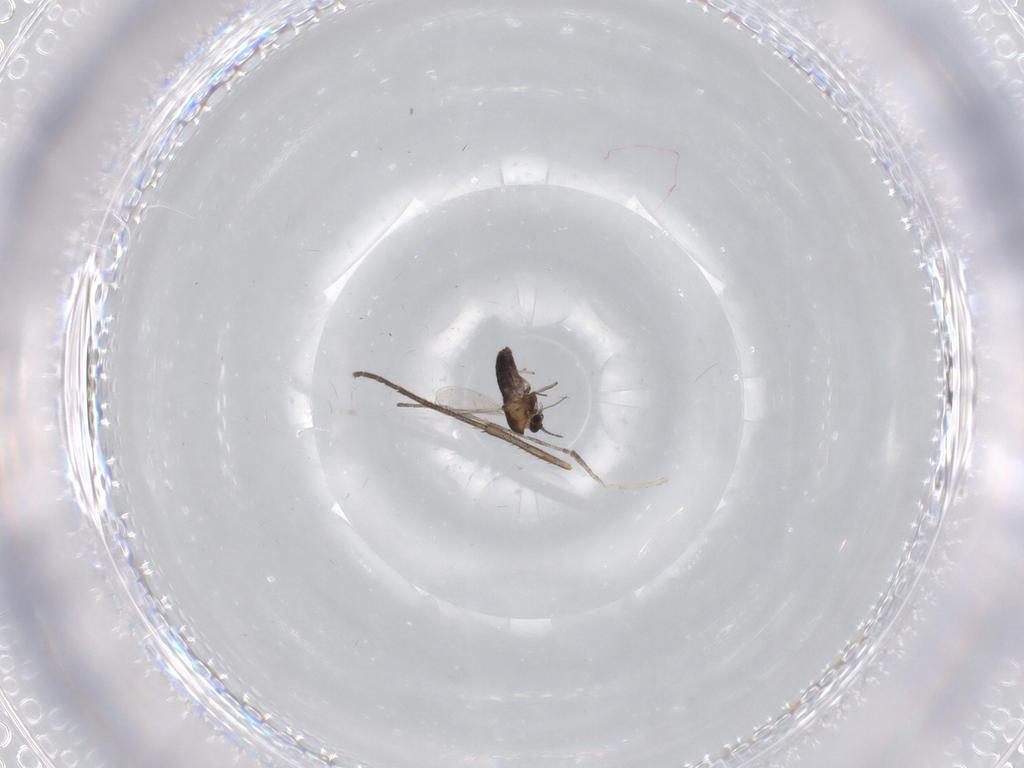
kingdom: Animalia
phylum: Arthropoda
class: Insecta
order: Diptera
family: Chironomidae
